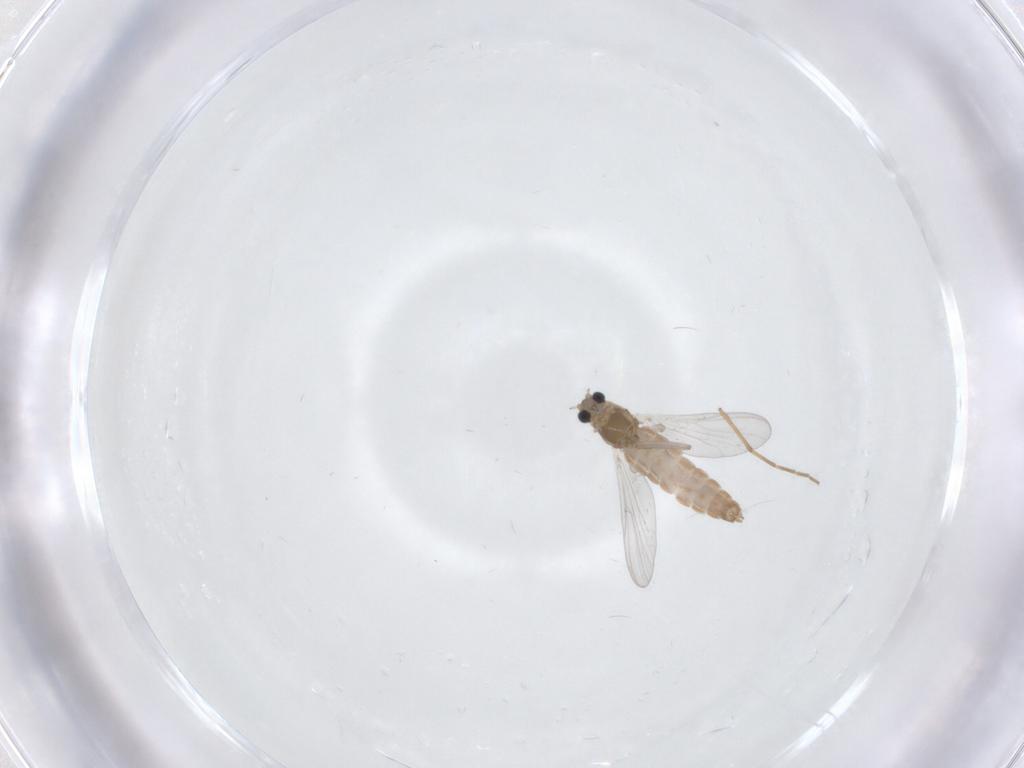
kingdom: Animalia
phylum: Arthropoda
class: Insecta
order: Diptera
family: Chironomidae
